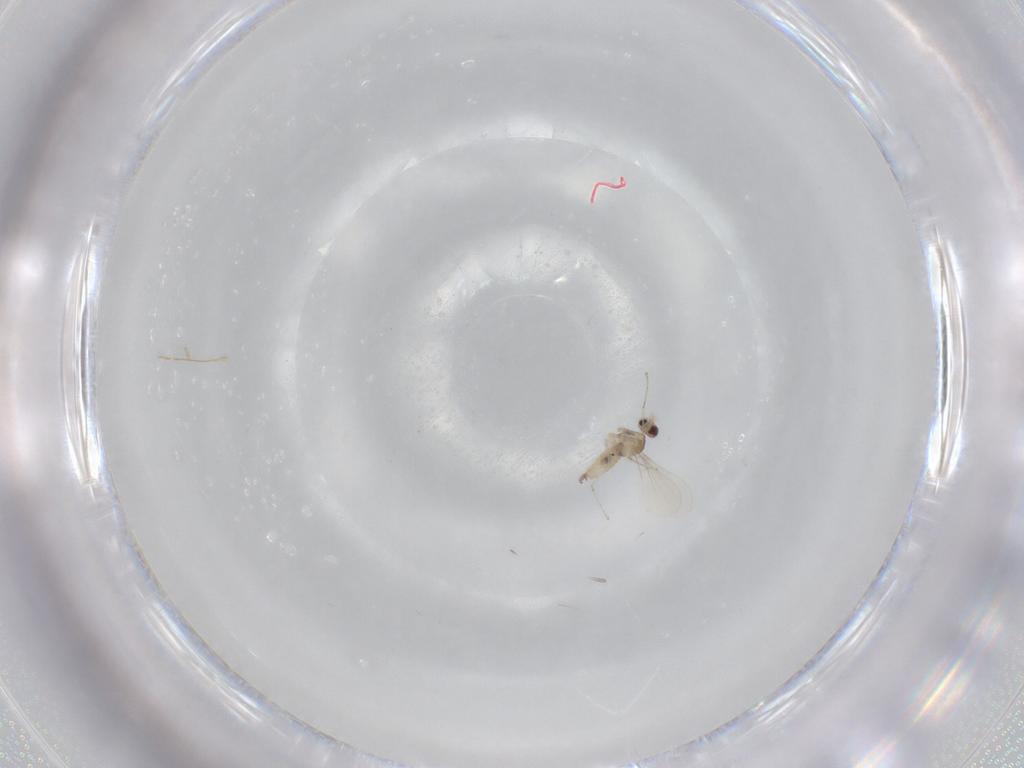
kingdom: Animalia
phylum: Arthropoda
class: Insecta
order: Diptera
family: Cecidomyiidae
